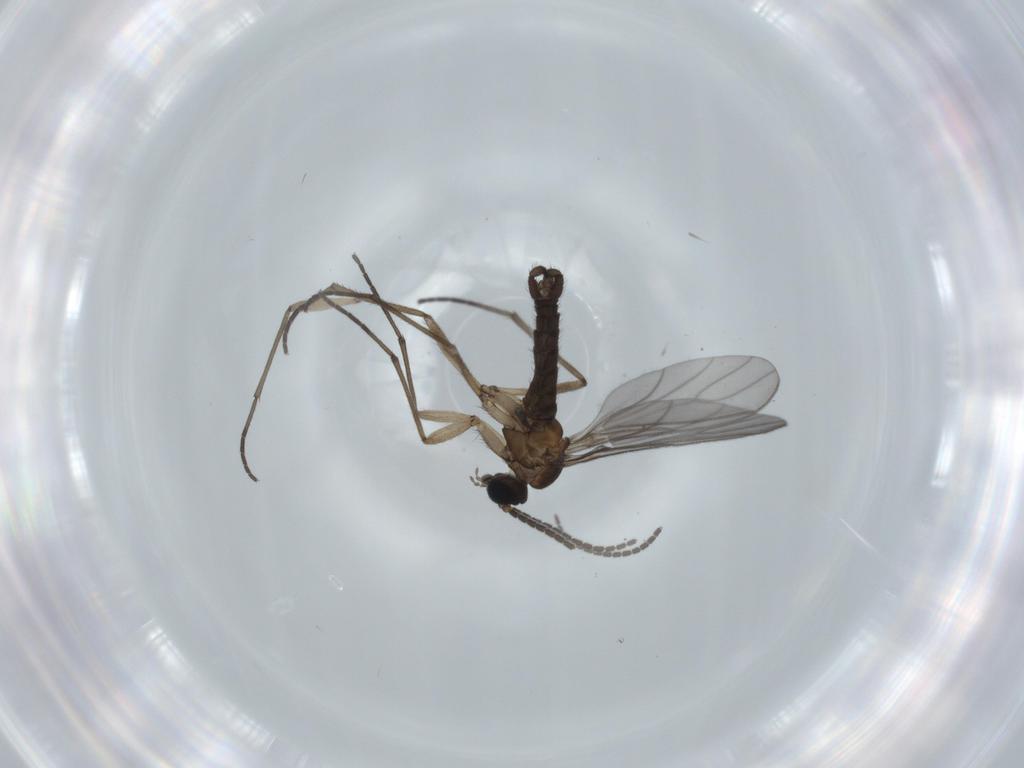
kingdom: Animalia
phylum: Arthropoda
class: Insecta
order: Diptera
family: Sciaridae
